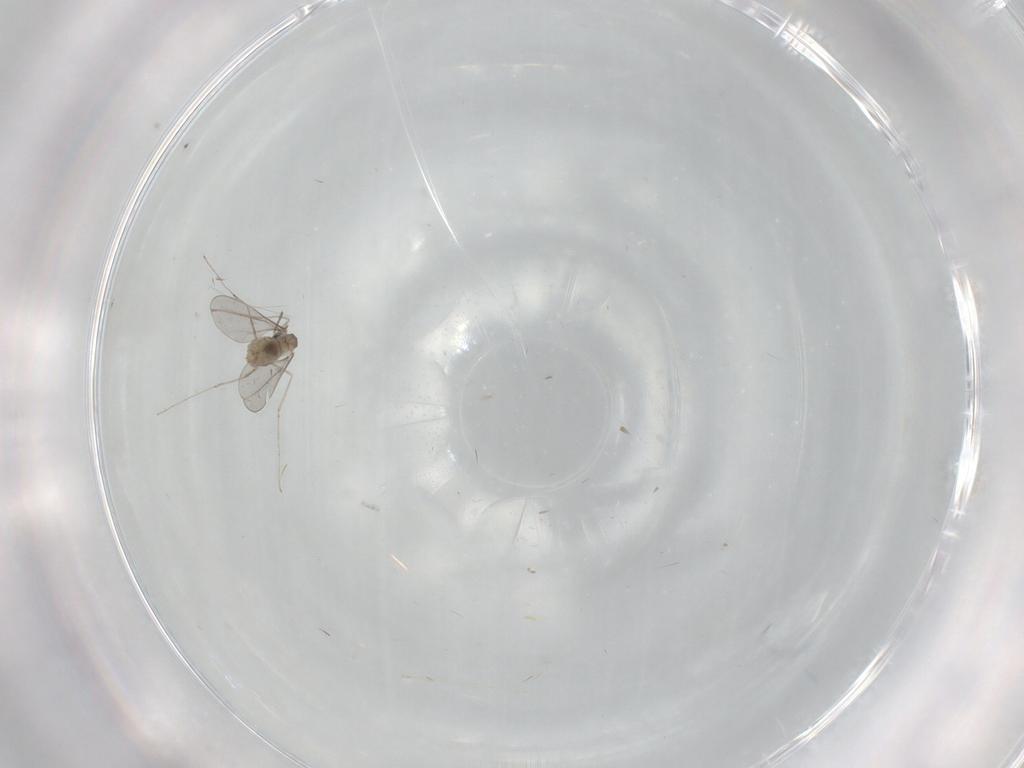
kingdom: Animalia
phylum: Arthropoda
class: Insecta
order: Diptera
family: Cecidomyiidae
